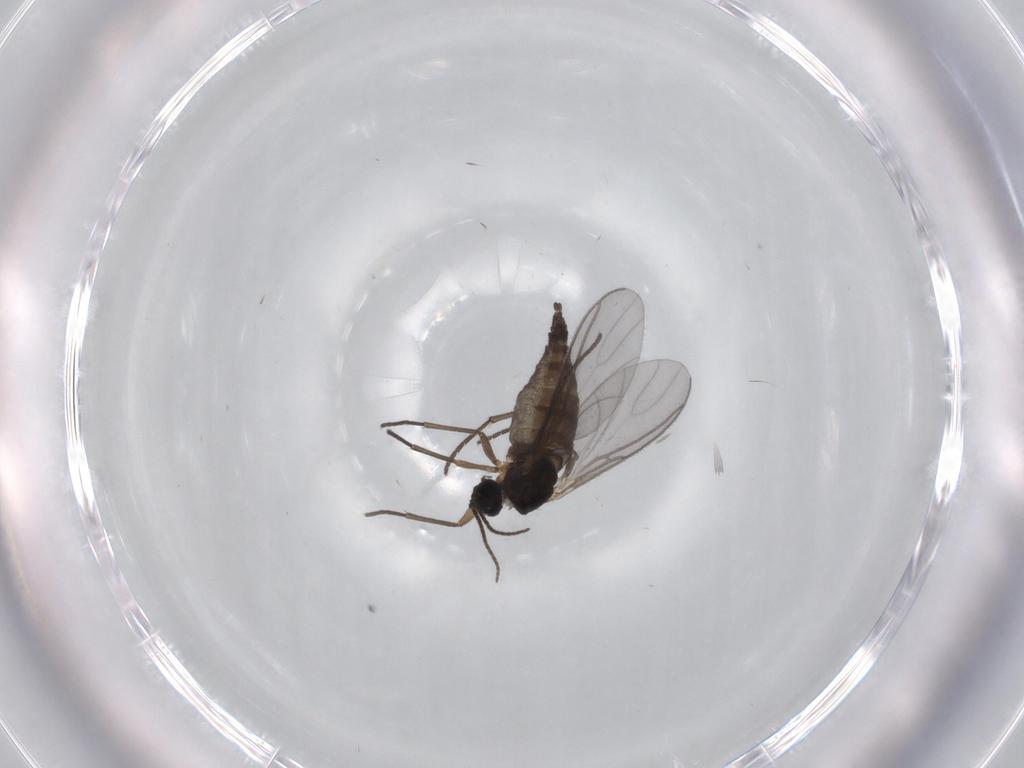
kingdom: Animalia
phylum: Arthropoda
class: Insecta
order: Diptera
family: Sciaridae
